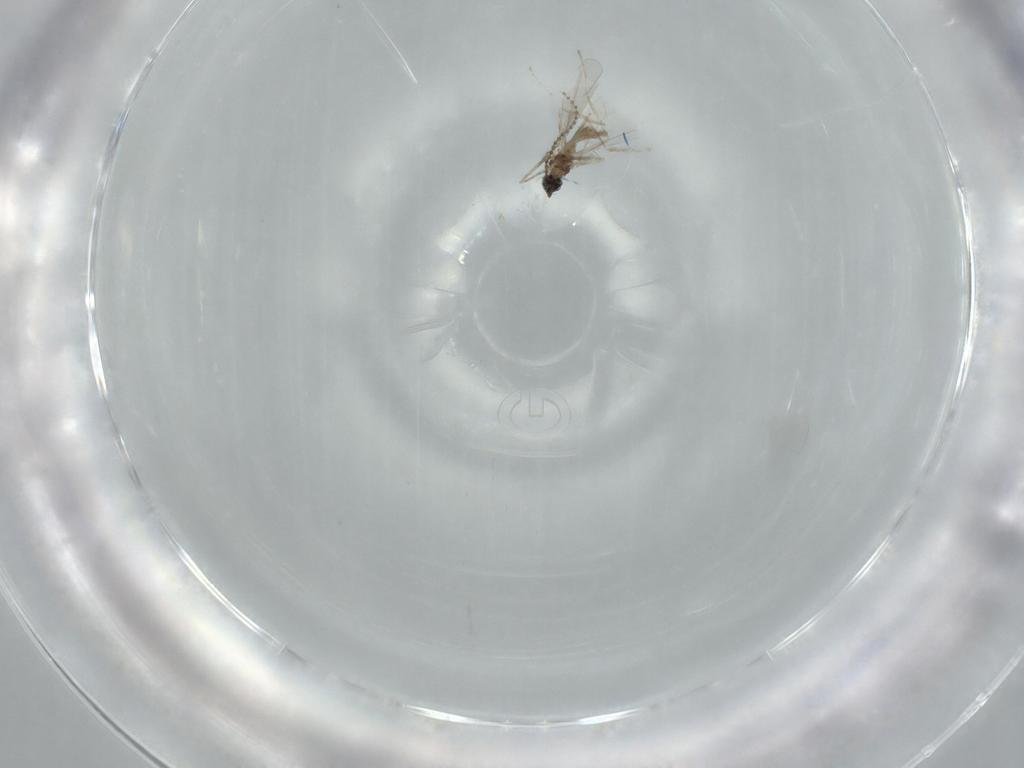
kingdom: Animalia
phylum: Arthropoda
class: Insecta
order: Diptera
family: Cecidomyiidae
